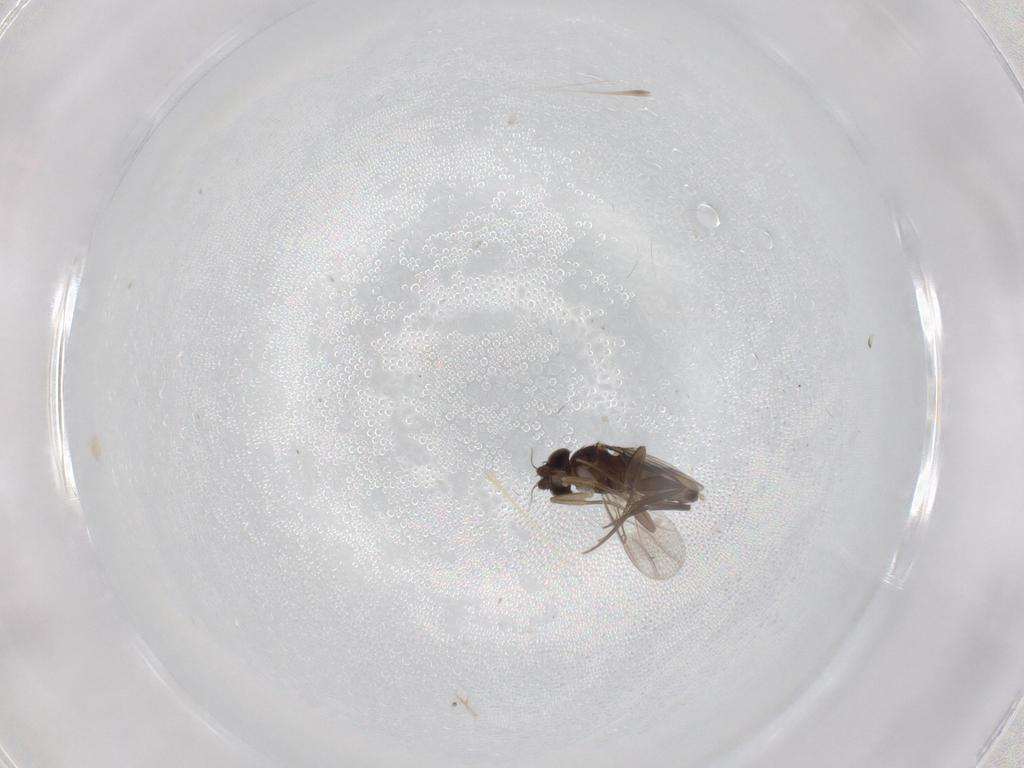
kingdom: Animalia
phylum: Arthropoda
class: Insecta
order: Diptera
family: Phoridae
